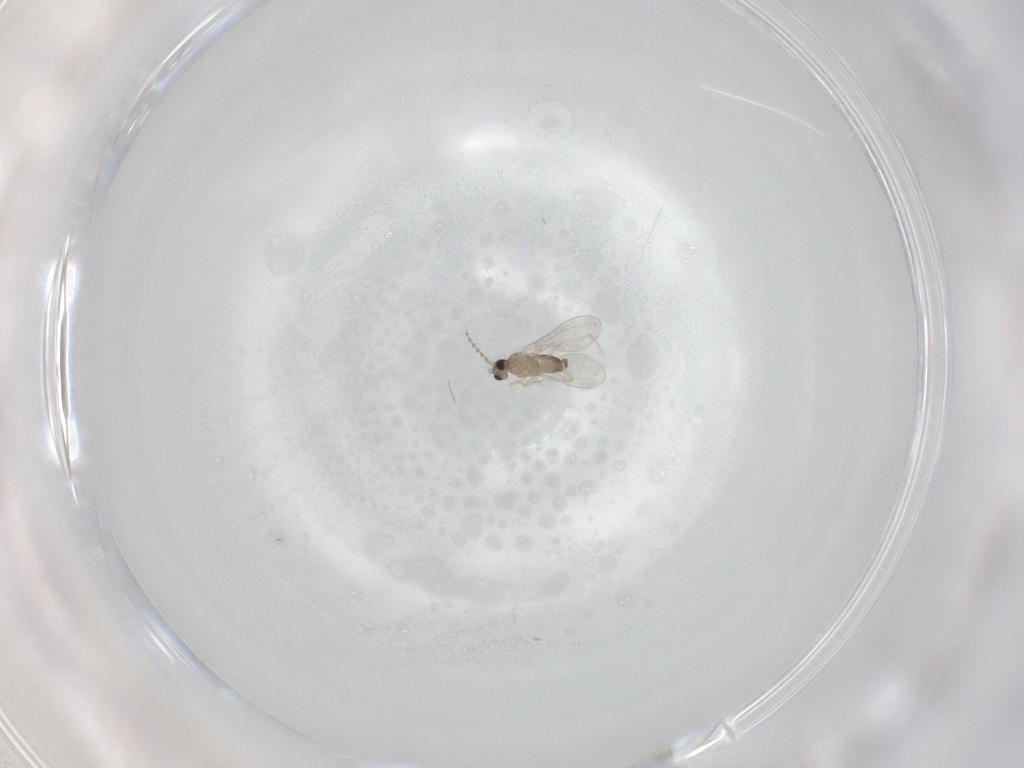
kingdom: Animalia
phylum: Arthropoda
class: Insecta
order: Diptera
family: Cecidomyiidae
